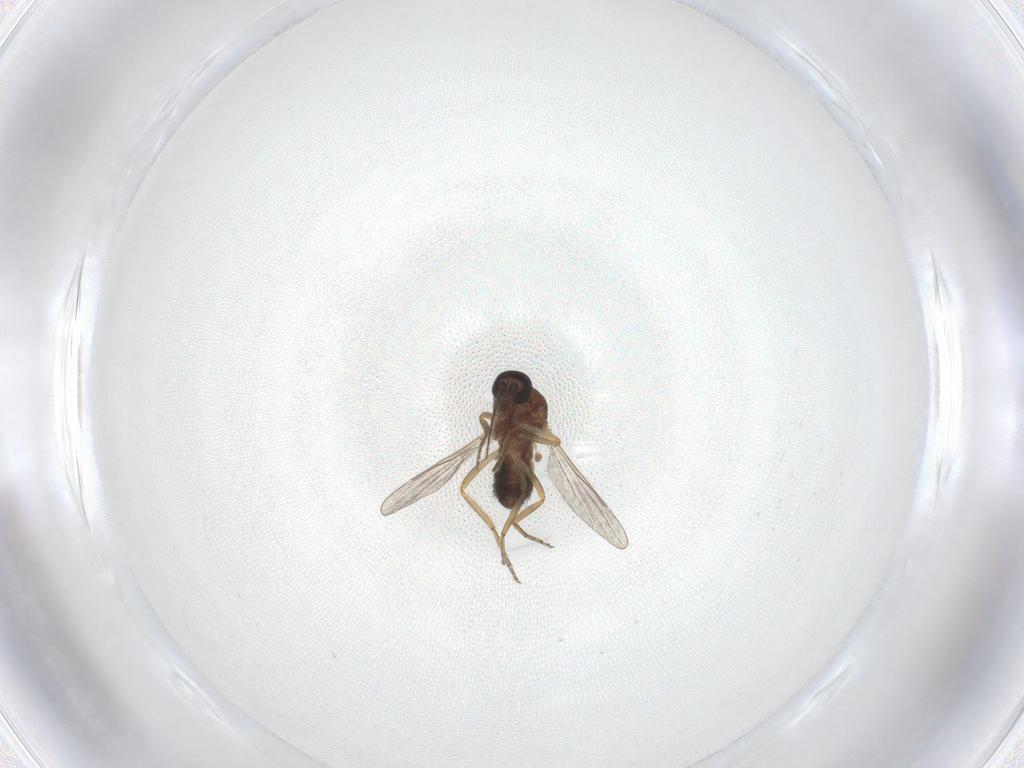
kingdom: Animalia
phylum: Arthropoda
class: Insecta
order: Diptera
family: Ceratopogonidae
